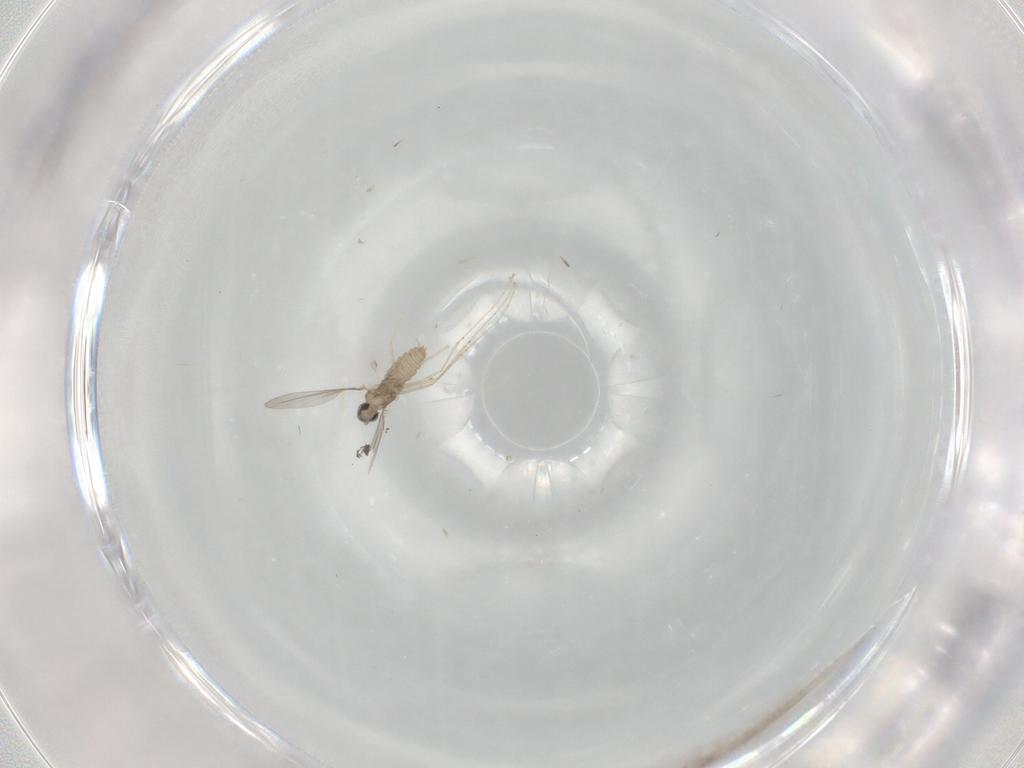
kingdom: Animalia
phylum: Arthropoda
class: Insecta
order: Diptera
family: Cecidomyiidae
